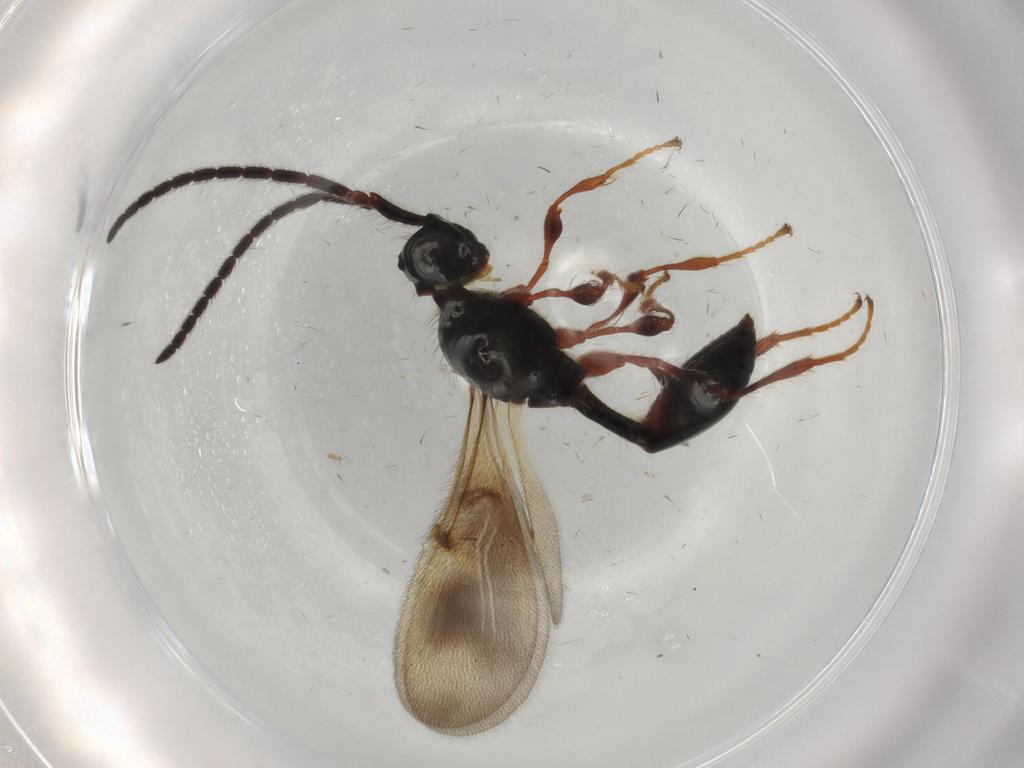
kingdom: Animalia
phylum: Arthropoda
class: Insecta
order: Hymenoptera
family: Diapriidae
